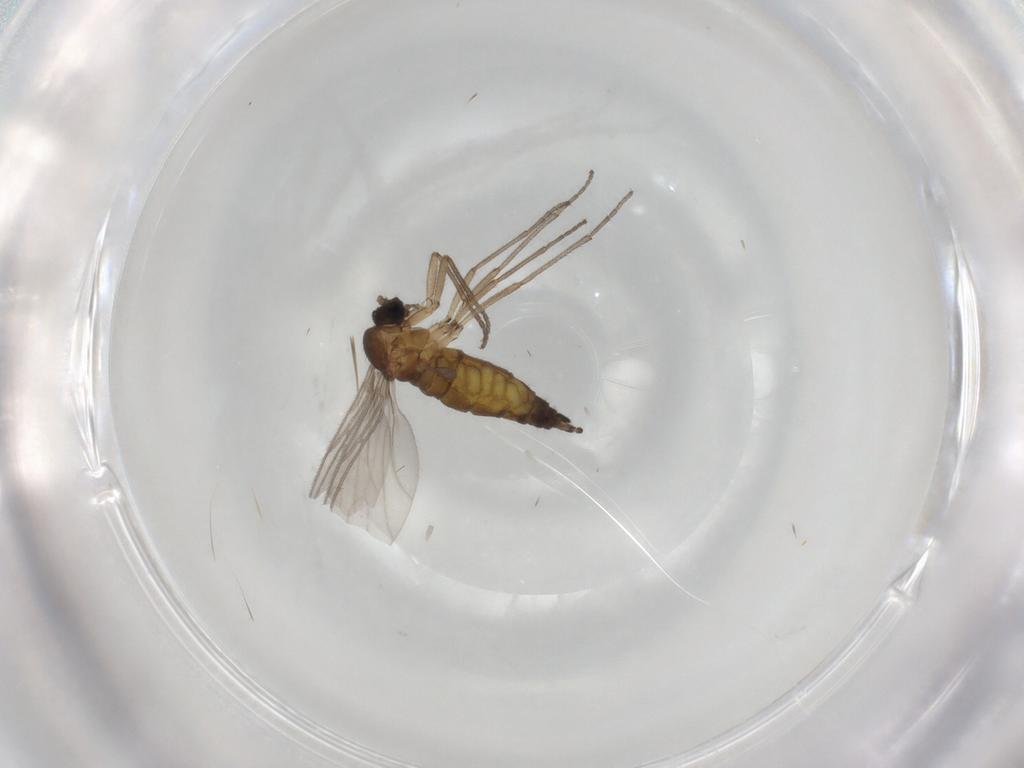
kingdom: Animalia
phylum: Arthropoda
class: Insecta
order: Diptera
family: Sciaridae
